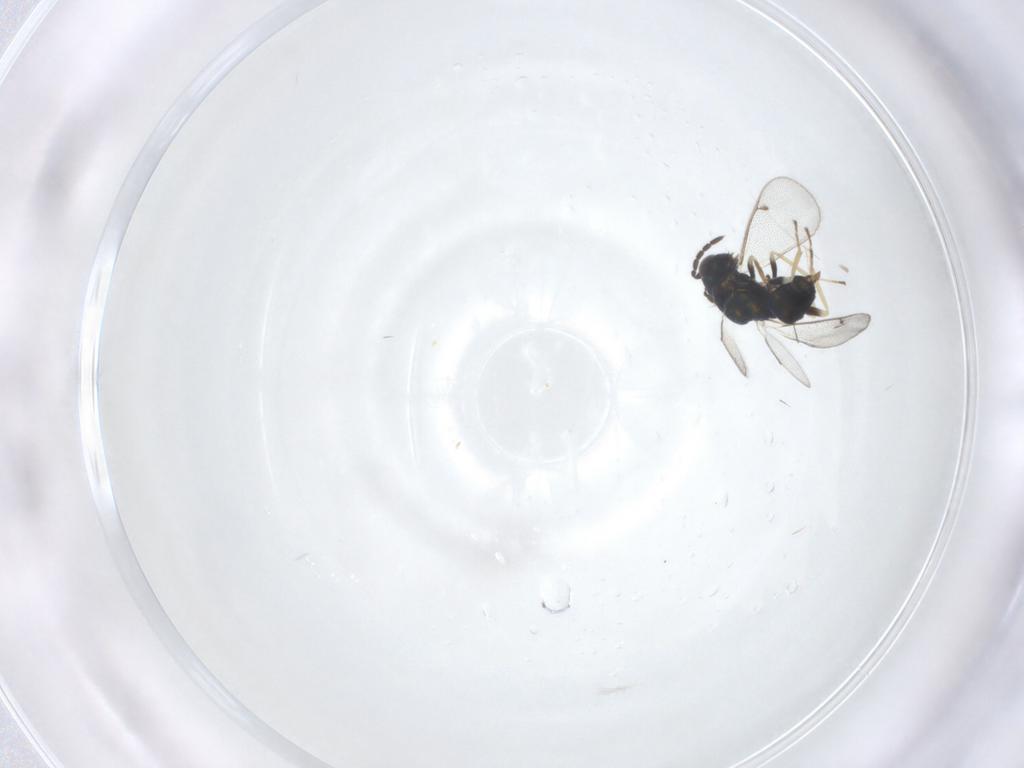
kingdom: Animalia
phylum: Arthropoda
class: Insecta
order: Hymenoptera
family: Eulophidae
